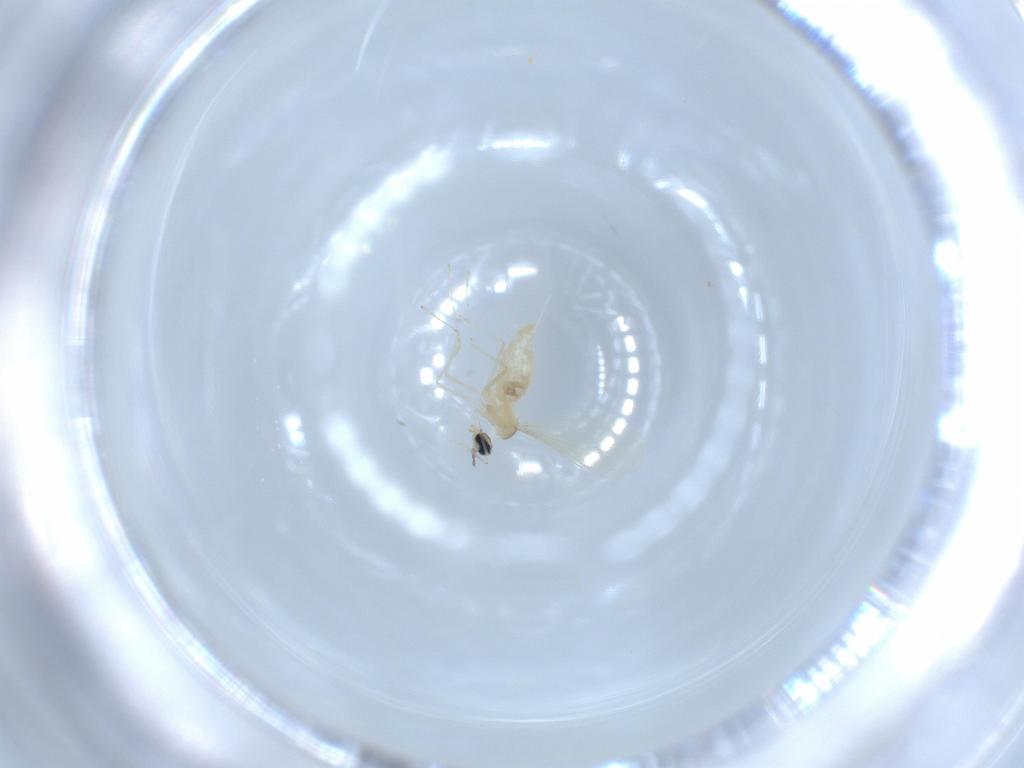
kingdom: Animalia
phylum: Arthropoda
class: Insecta
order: Diptera
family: Cecidomyiidae
